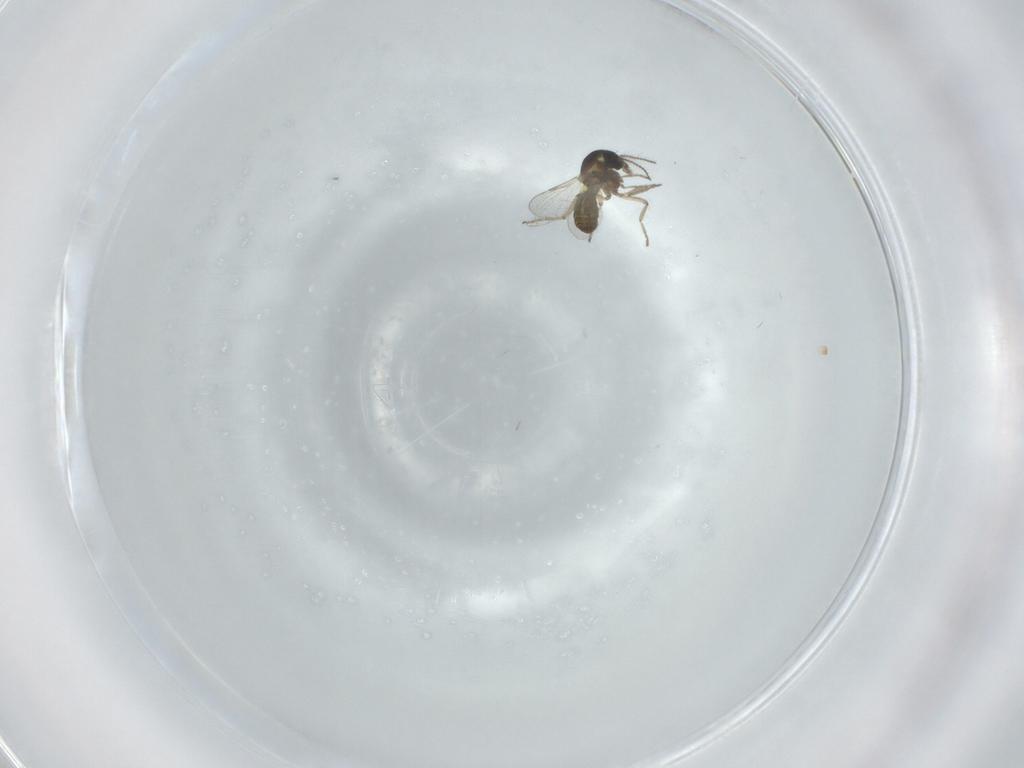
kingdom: Animalia
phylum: Arthropoda
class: Insecta
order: Diptera
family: Ceratopogonidae
